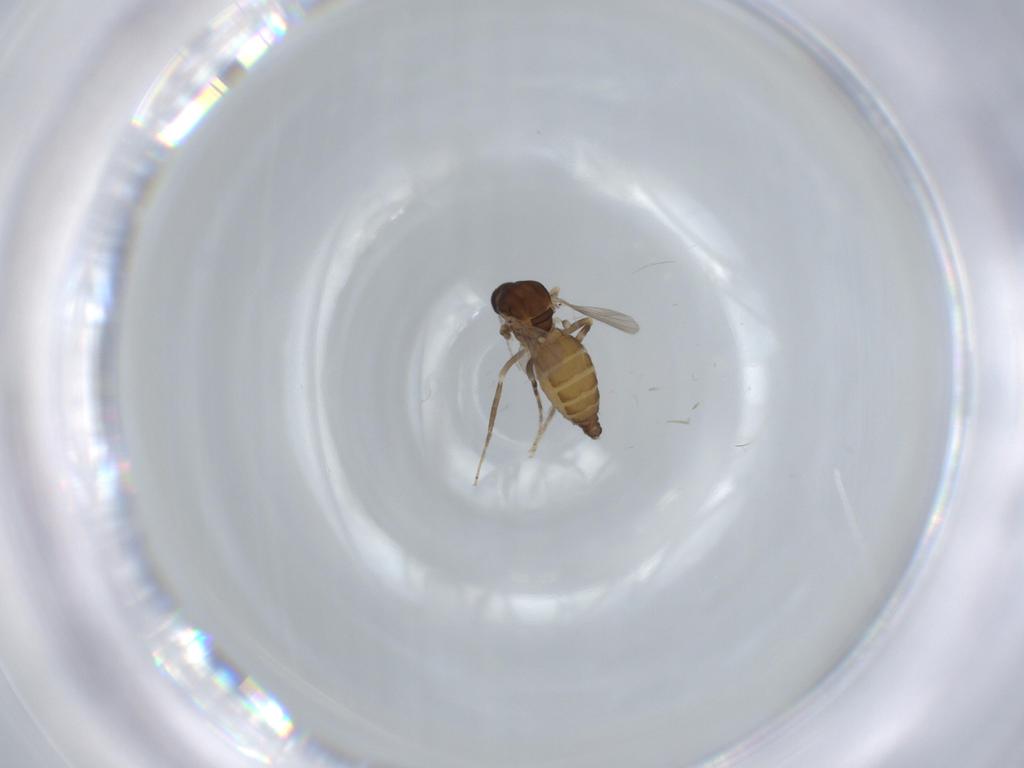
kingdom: Animalia
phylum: Arthropoda
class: Insecta
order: Diptera
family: Ceratopogonidae
